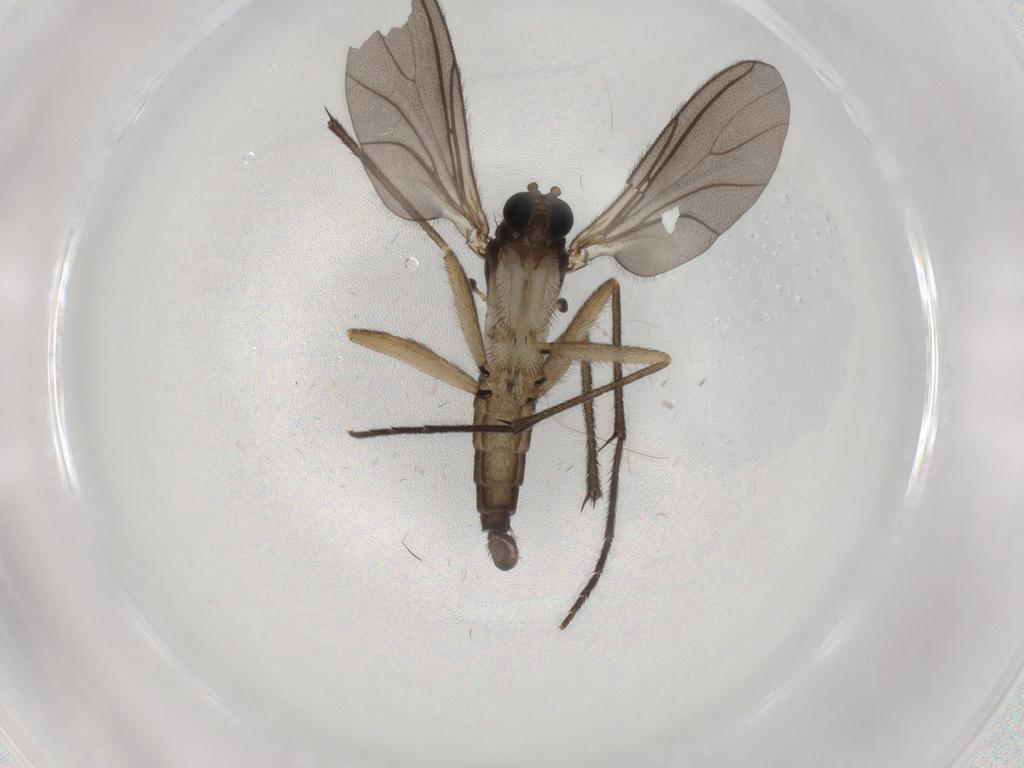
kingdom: Animalia
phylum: Arthropoda
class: Insecta
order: Diptera
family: Sciaridae
